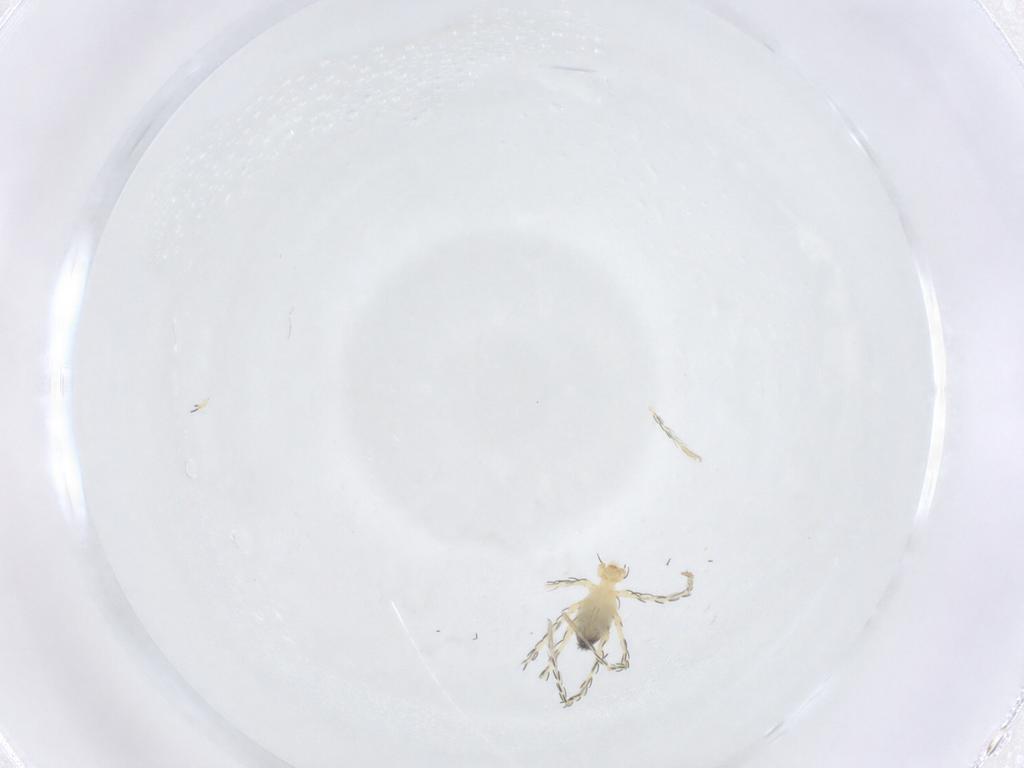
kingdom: Animalia
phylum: Arthropoda
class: Arachnida
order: Trombidiformes
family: Erythraeidae
